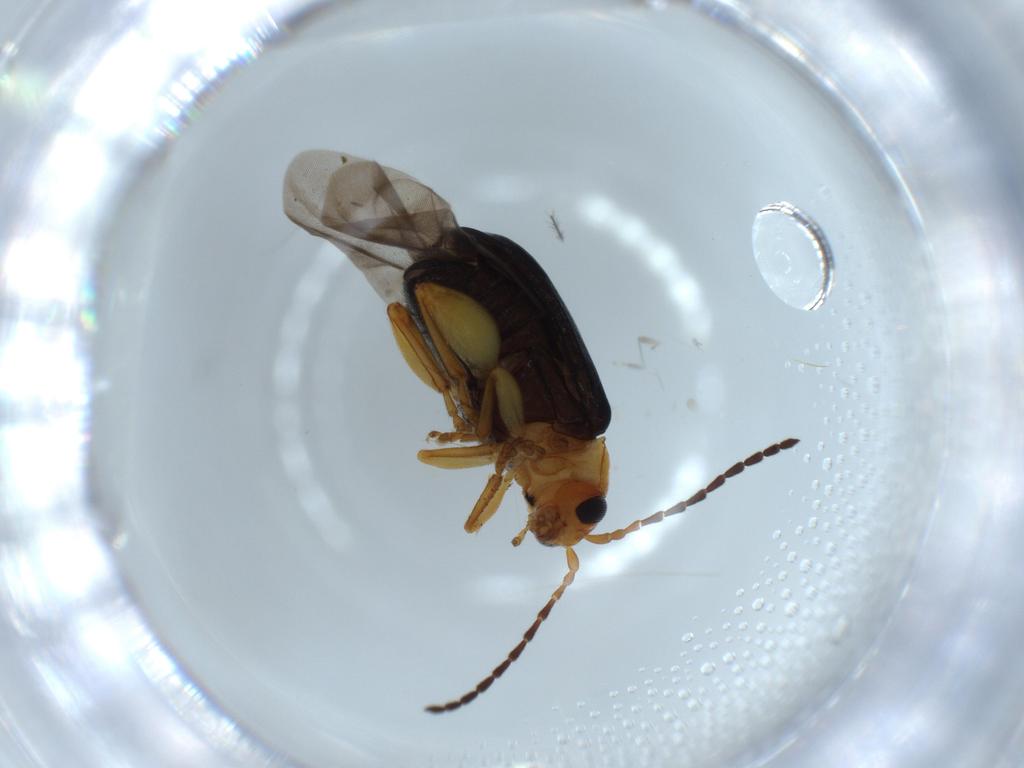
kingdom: Animalia
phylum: Arthropoda
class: Insecta
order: Coleoptera
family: Curculionidae
